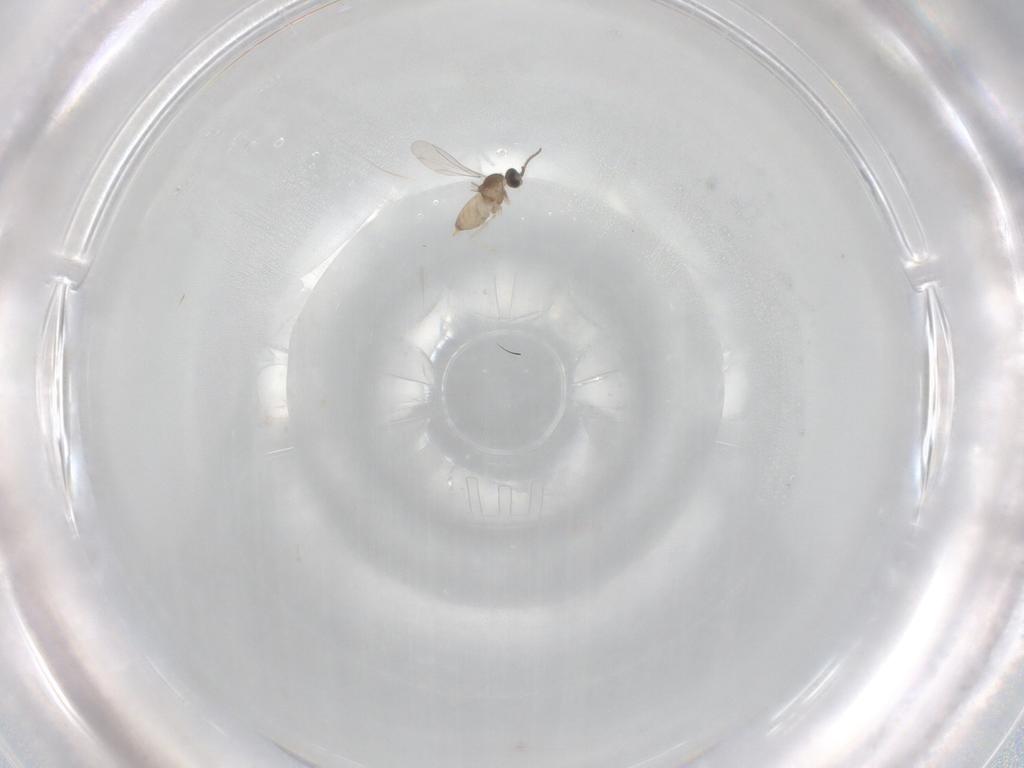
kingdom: Animalia
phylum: Arthropoda
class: Insecta
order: Diptera
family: Cecidomyiidae
